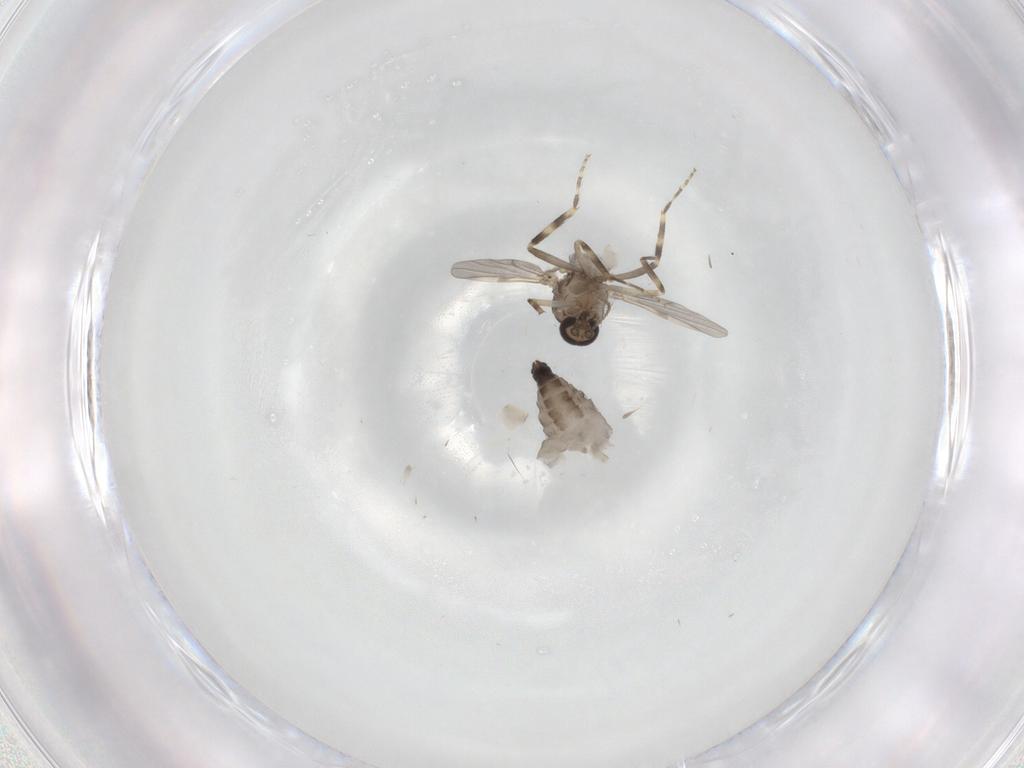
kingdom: Animalia
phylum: Arthropoda
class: Insecta
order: Diptera
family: Ceratopogonidae
